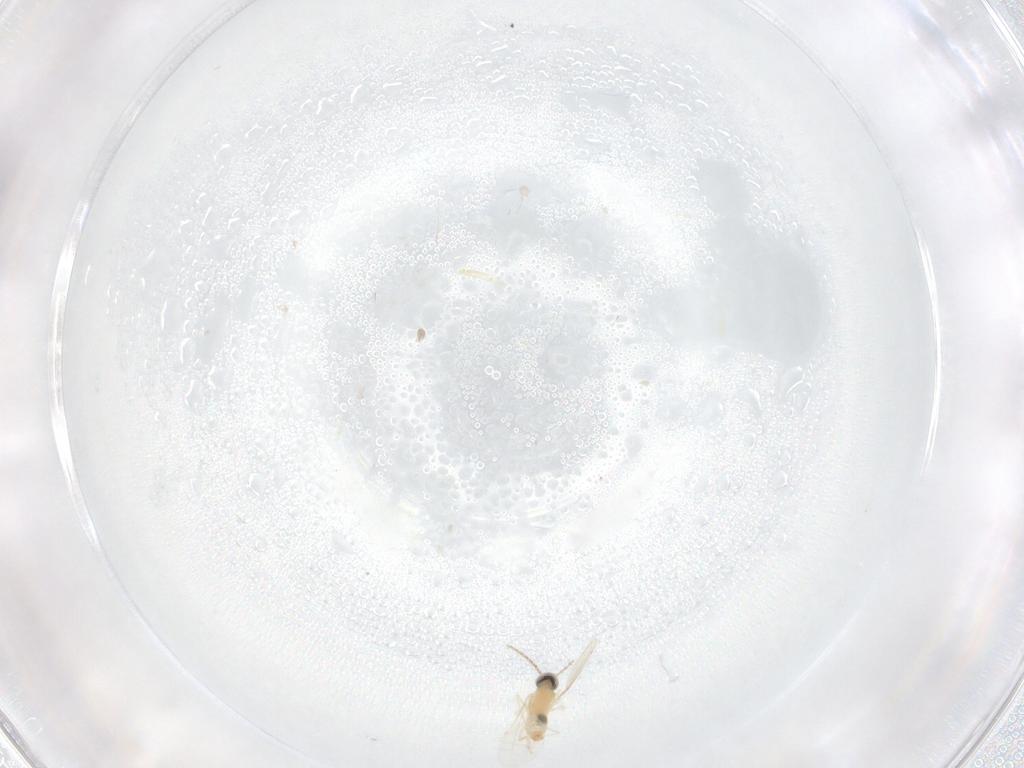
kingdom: Animalia
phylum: Arthropoda
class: Insecta
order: Diptera
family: Cecidomyiidae
